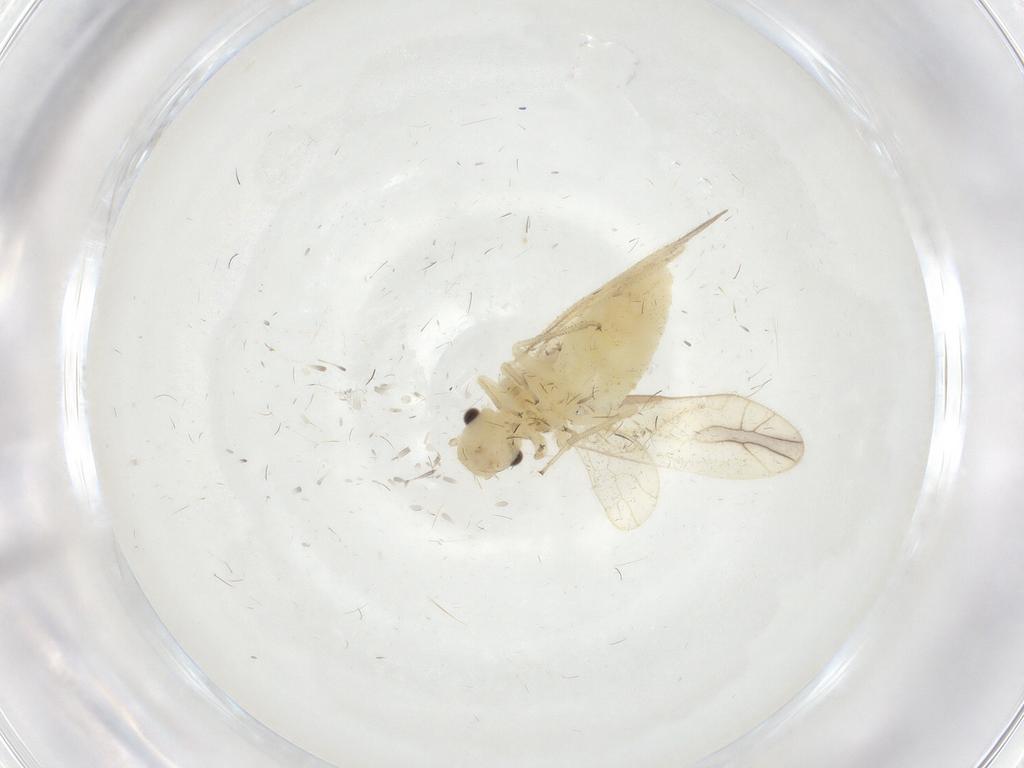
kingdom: Animalia
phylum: Arthropoda
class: Insecta
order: Psocodea
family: Caeciliusidae
